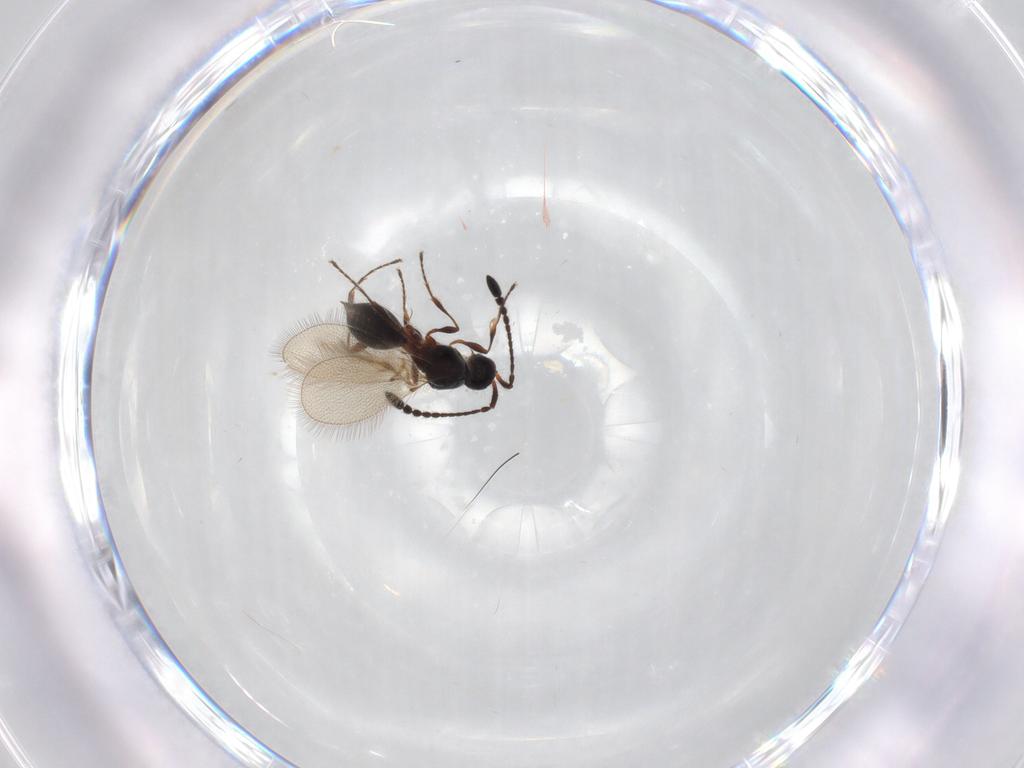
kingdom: Animalia
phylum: Arthropoda
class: Insecta
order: Hymenoptera
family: Diapriidae
